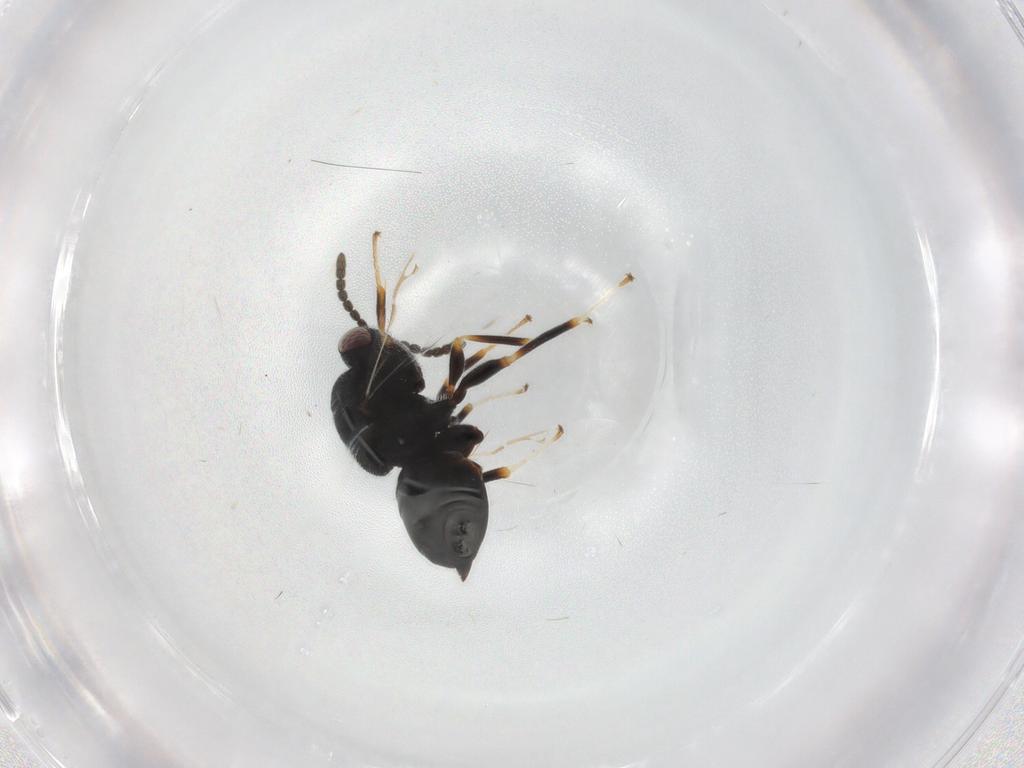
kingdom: Animalia
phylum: Arthropoda
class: Insecta
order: Hymenoptera
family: Eurytomidae
